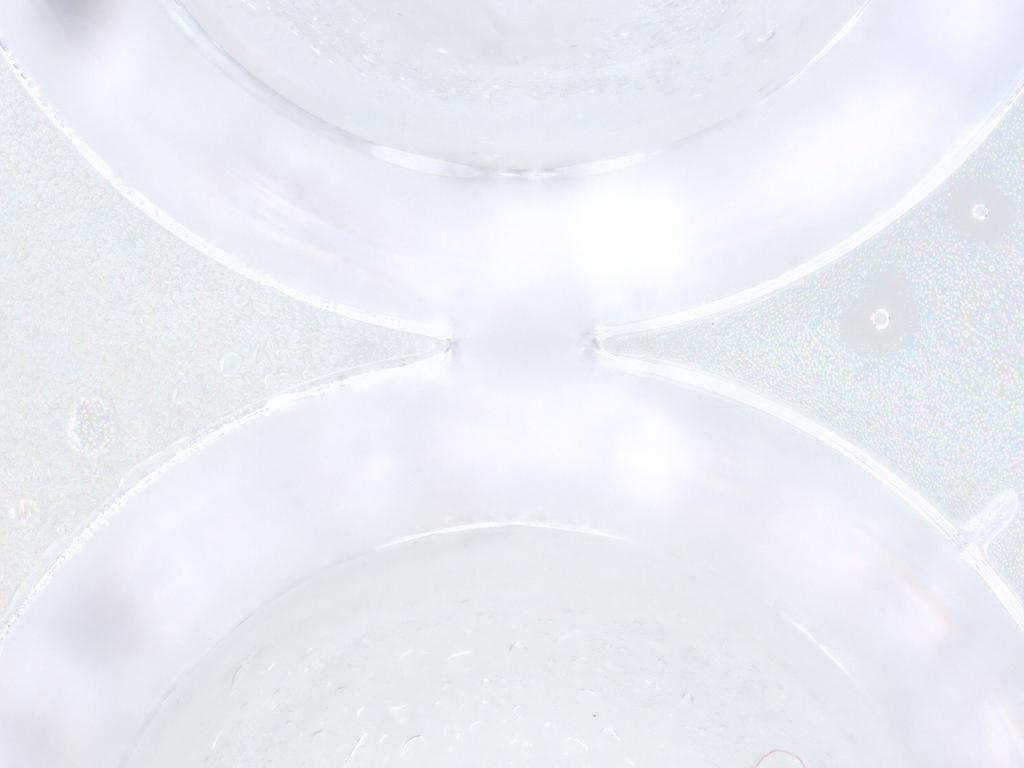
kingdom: Animalia
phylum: Arthropoda
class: Insecta
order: Diptera
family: Psychodidae
